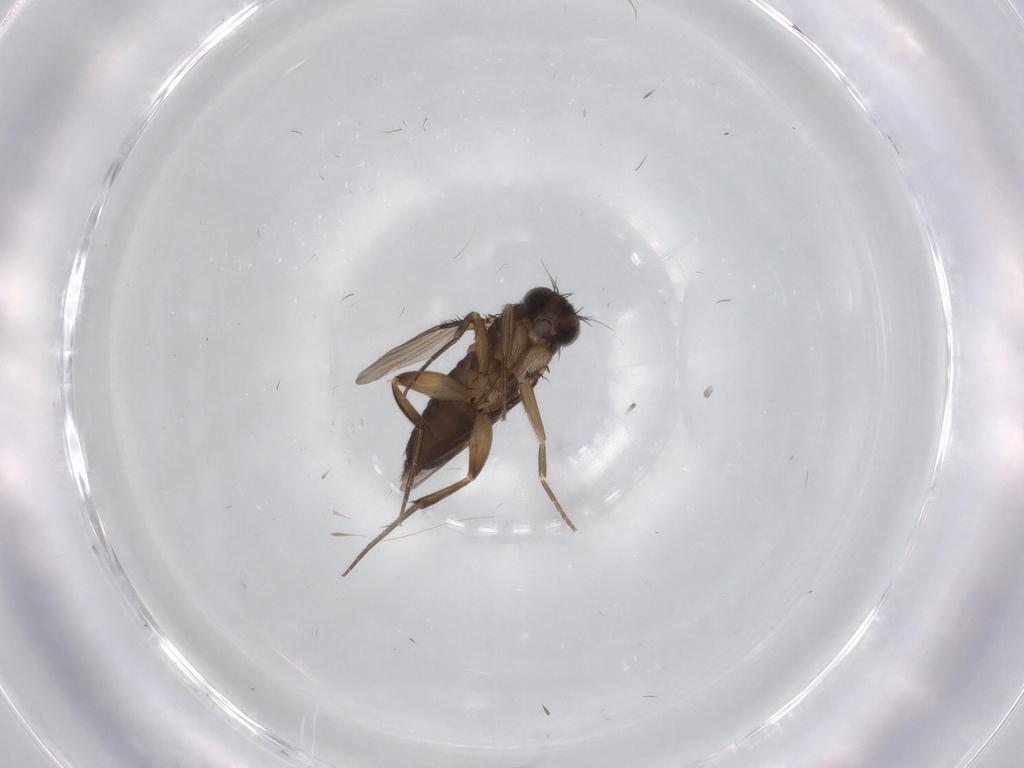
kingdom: Animalia
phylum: Arthropoda
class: Insecta
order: Diptera
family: Phoridae
